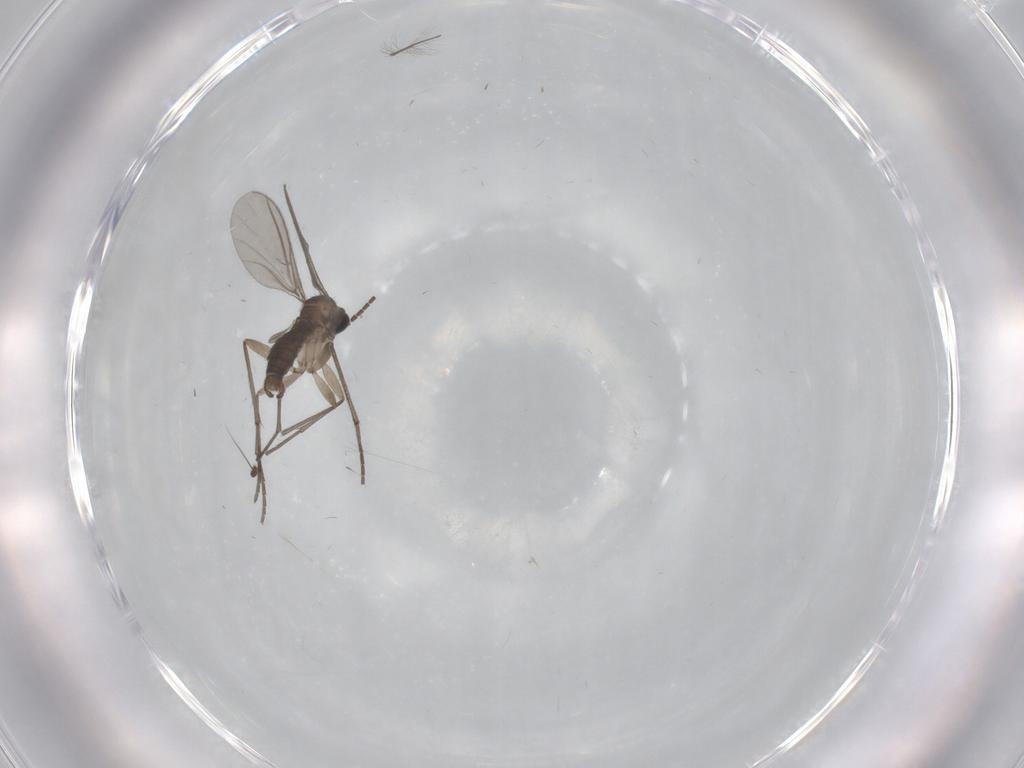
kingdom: Animalia
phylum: Arthropoda
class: Insecta
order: Diptera
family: Sciaridae
